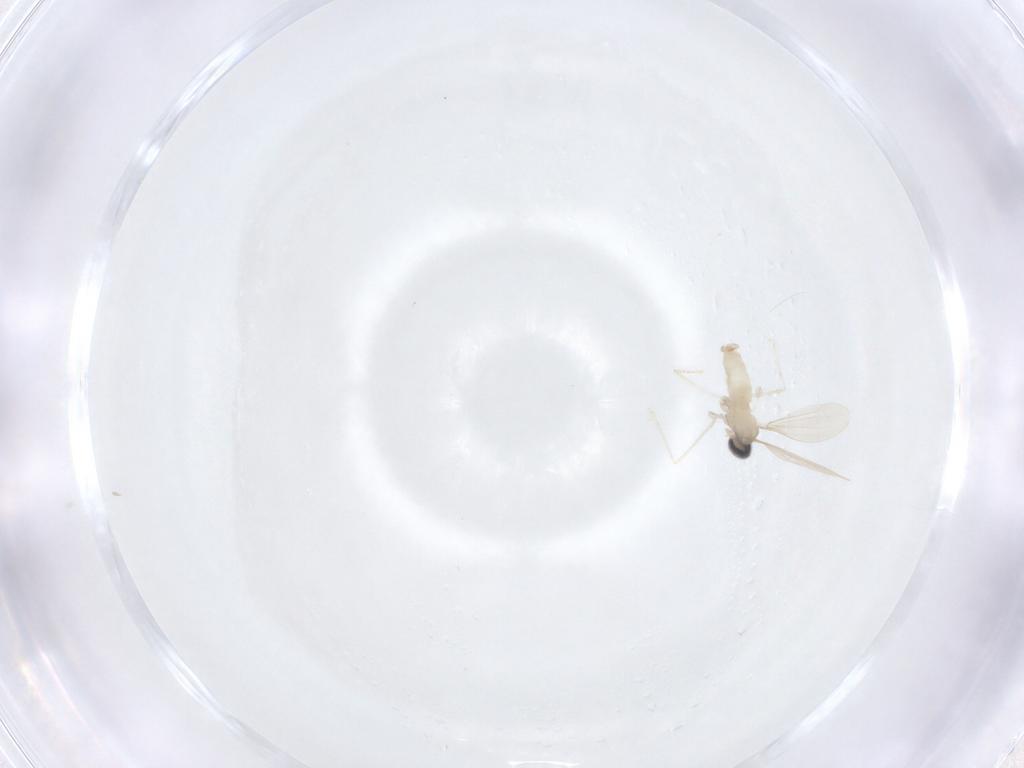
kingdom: Animalia
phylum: Arthropoda
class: Insecta
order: Diptera
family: Cecidomyiidae
